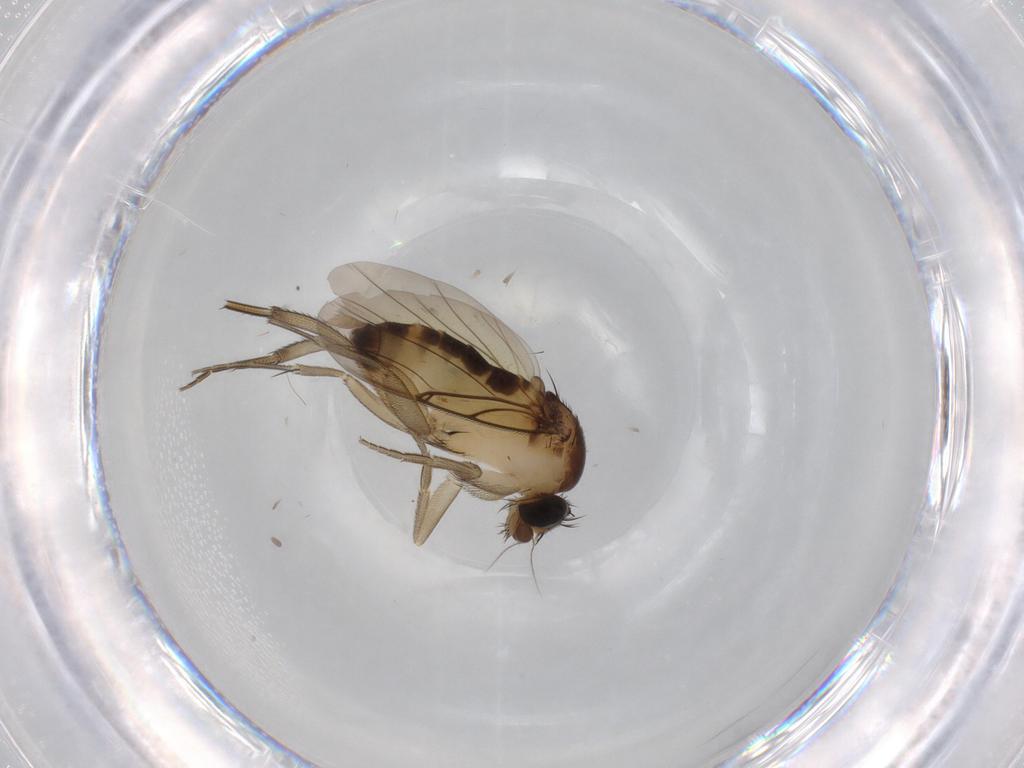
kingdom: Animalia
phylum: Arthropoda
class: Insecta
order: Diptera
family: Phoridae
